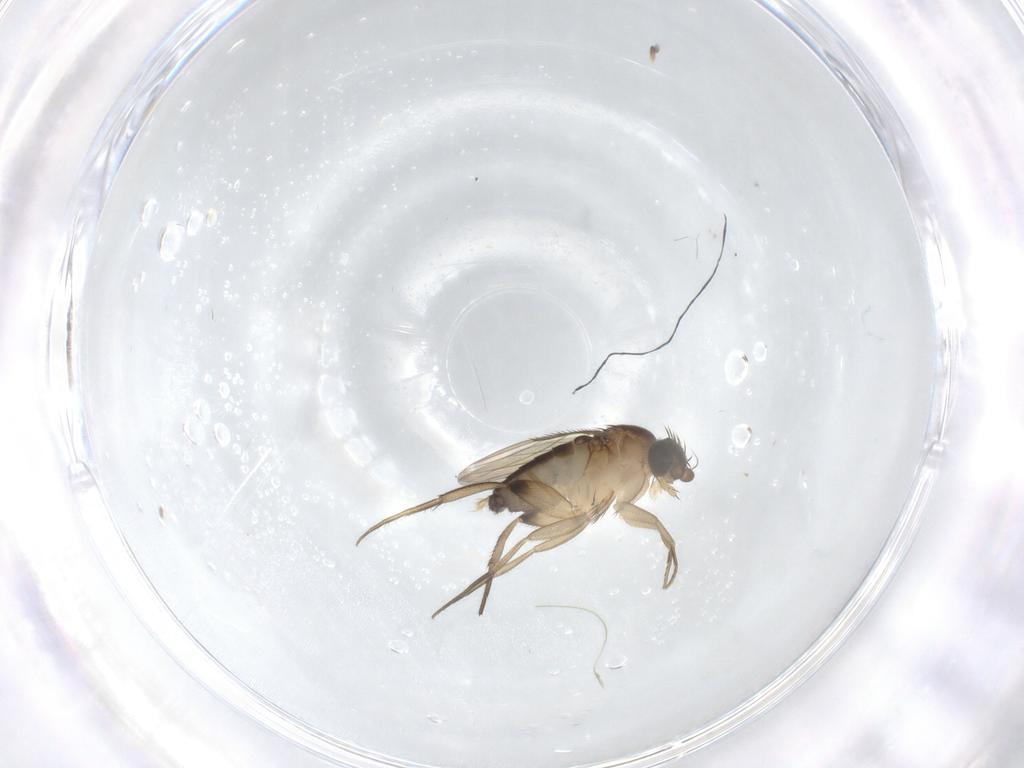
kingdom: Animalia
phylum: Arthropoda
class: Insecta
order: Diptera
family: Phoridae
